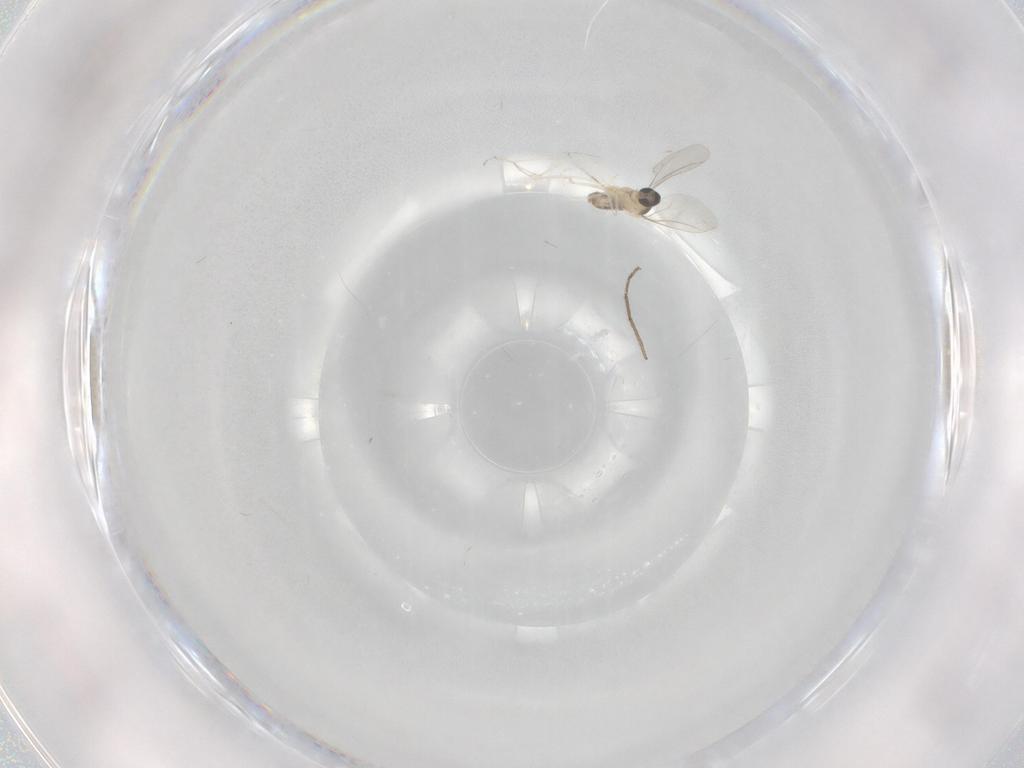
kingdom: Animalia
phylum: Arthropoda
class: Insecta
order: Diptera
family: Cecidomyiidae
